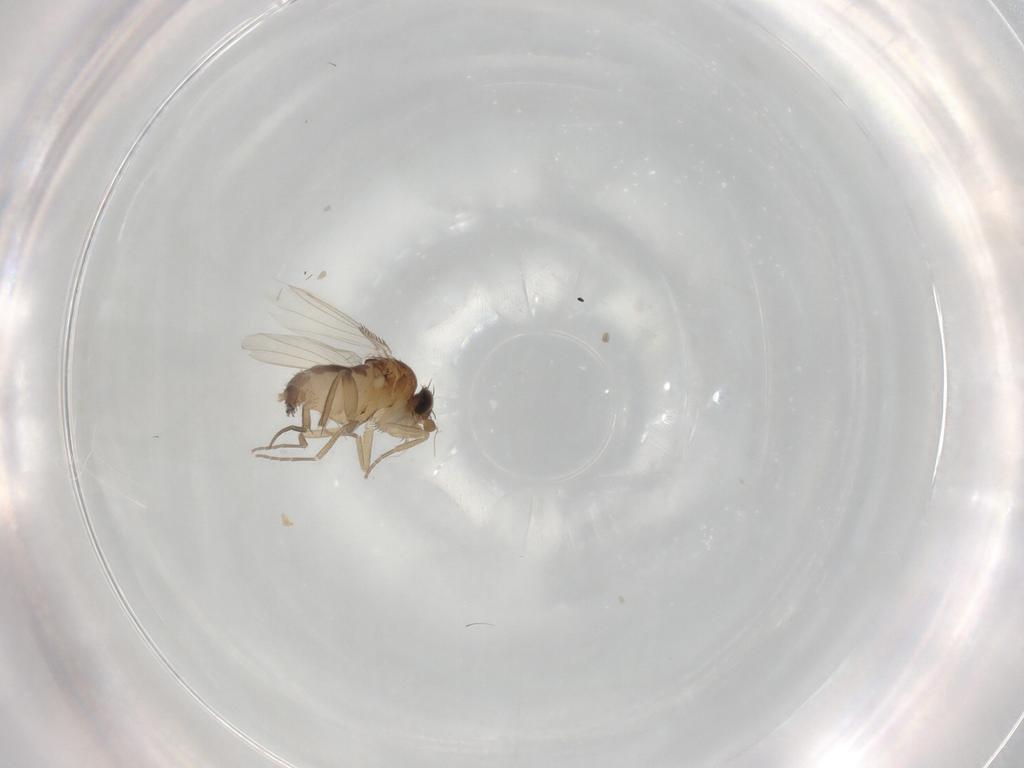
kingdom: Animalia
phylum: Arthropoda
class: Insecta
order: Diptera
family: Phoridae
